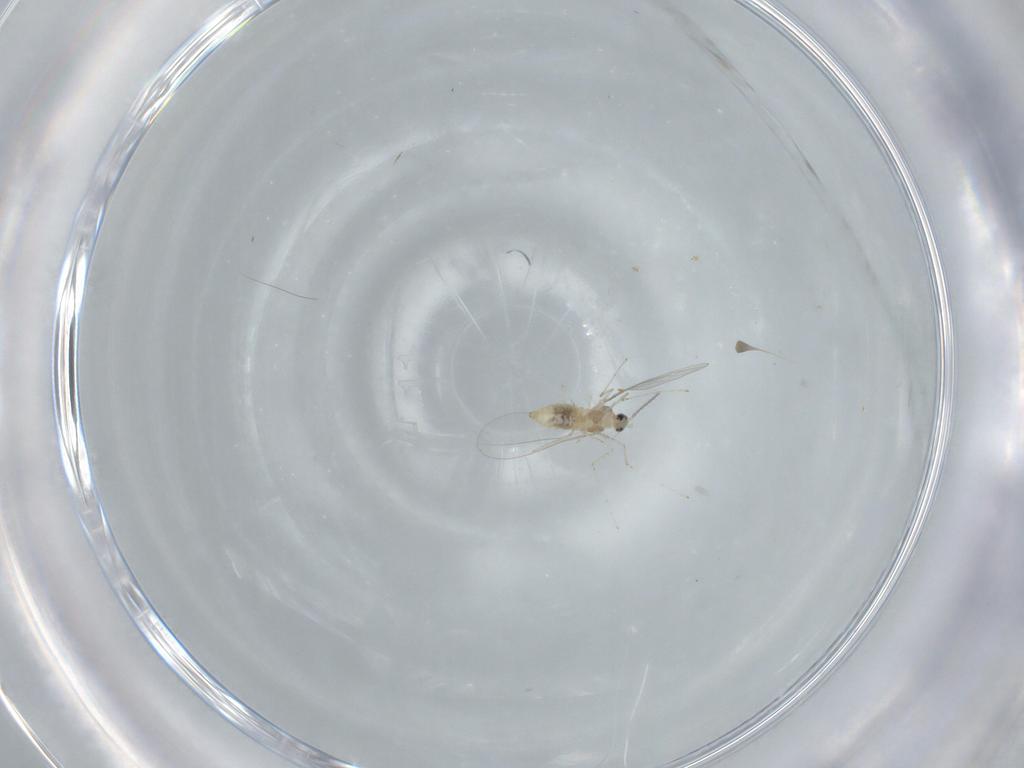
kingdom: Animalia
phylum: Arthropoda
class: Insecta
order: Diptera
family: Cecidomyiidae
